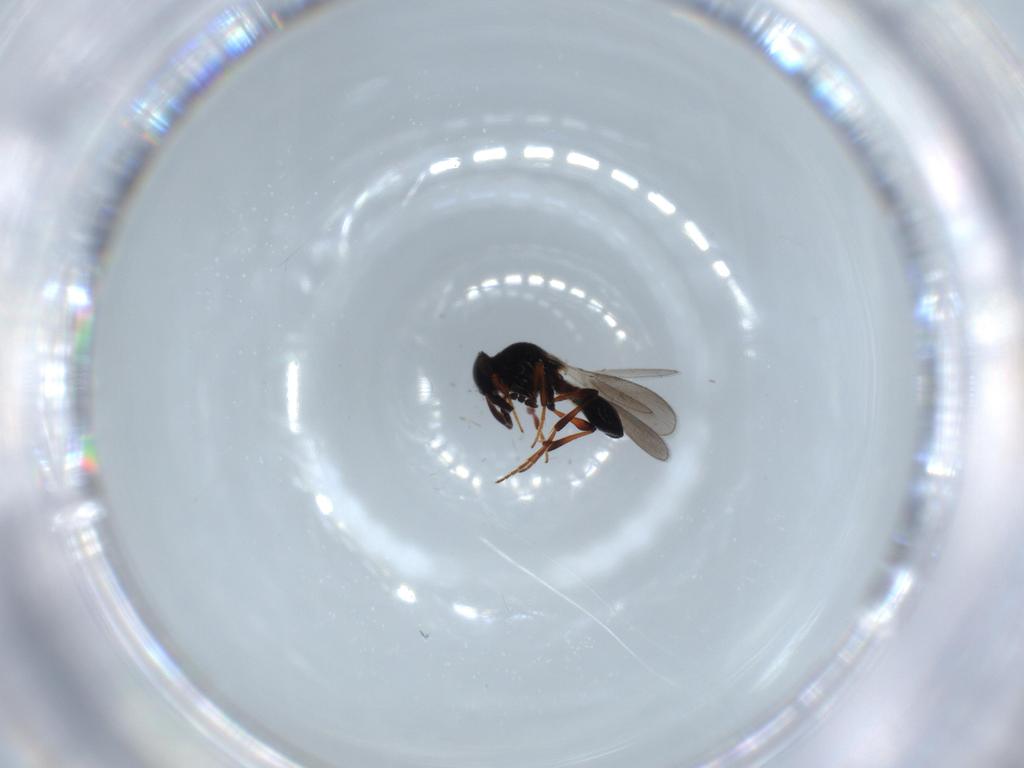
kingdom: Animalia
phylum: Arthropoda
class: Insecta
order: Hymenoptera
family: Platygastridae
